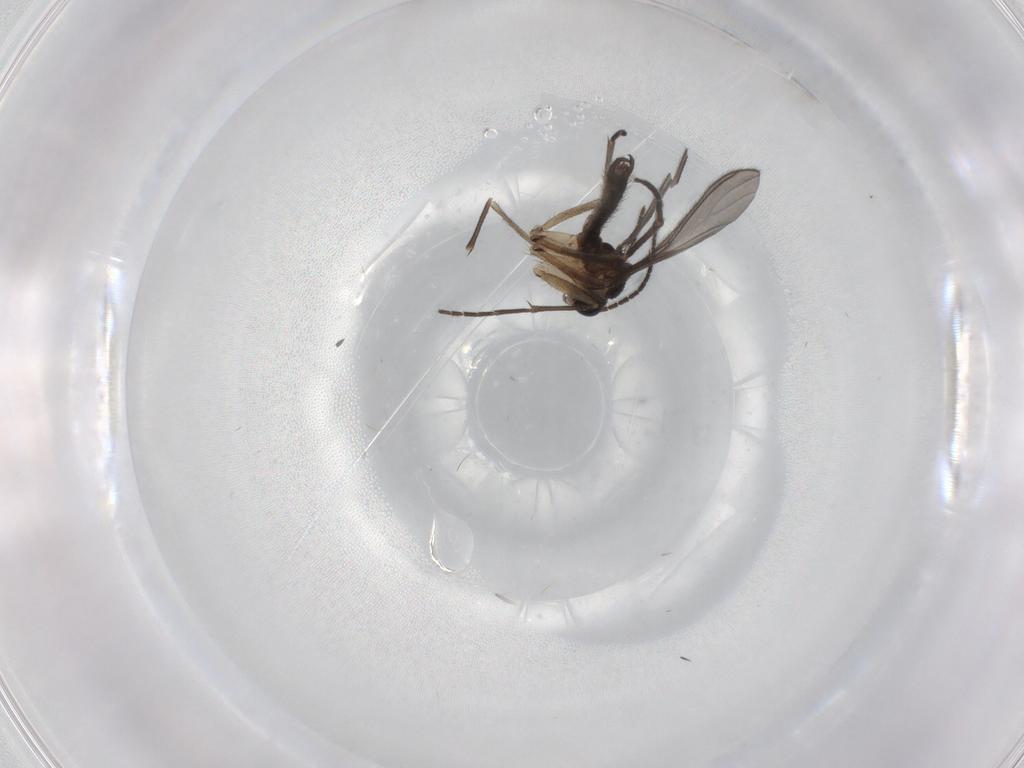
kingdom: Animalia
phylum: Arthropoda
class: Insecta
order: Diptera
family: Sciaridae
